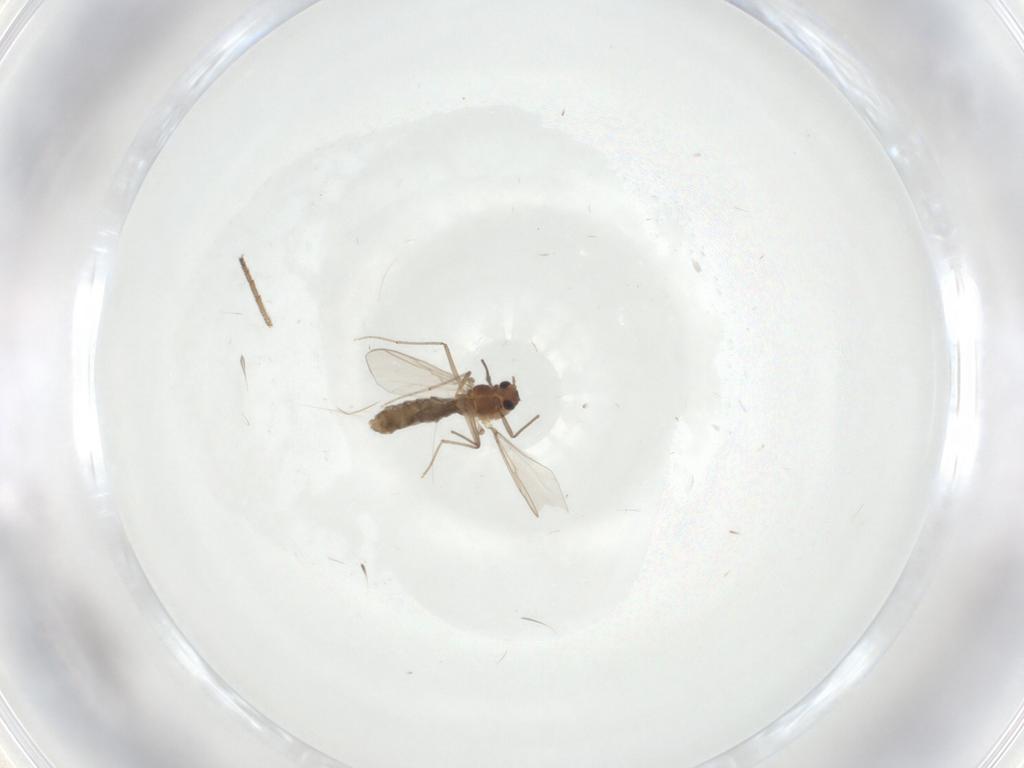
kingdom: Animalia
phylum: Arthropoda
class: Insecta
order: Diptera
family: Chironomidae
